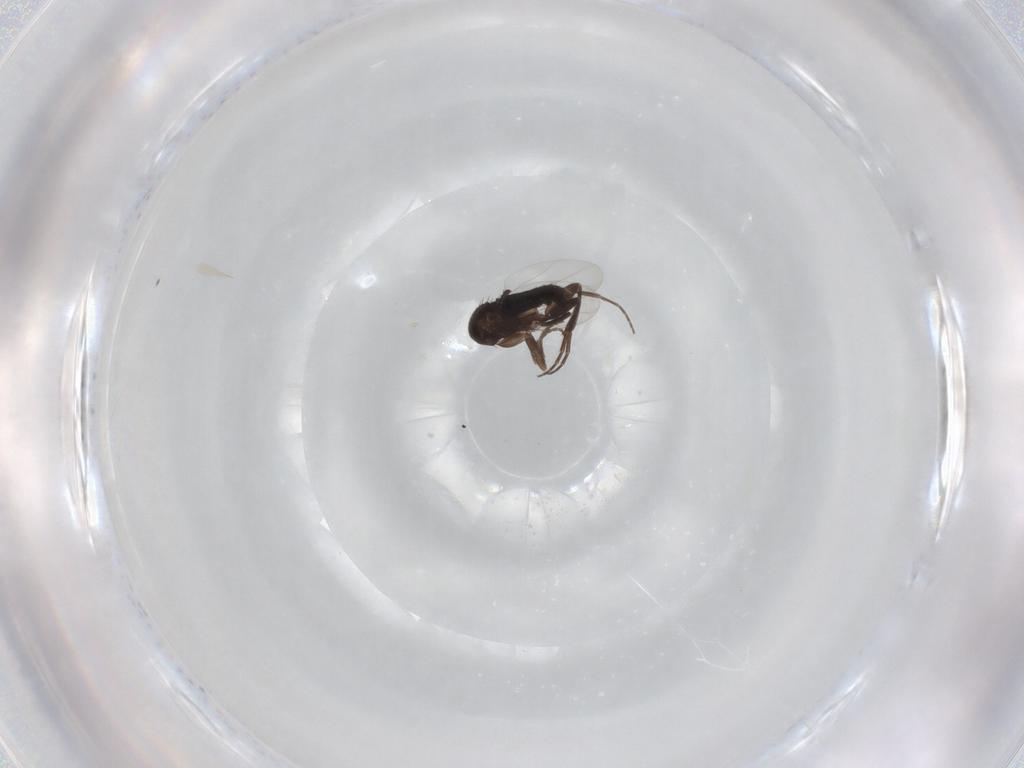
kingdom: Animalia
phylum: Arthropoda
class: Insecta
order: Diptera
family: Phoridae
